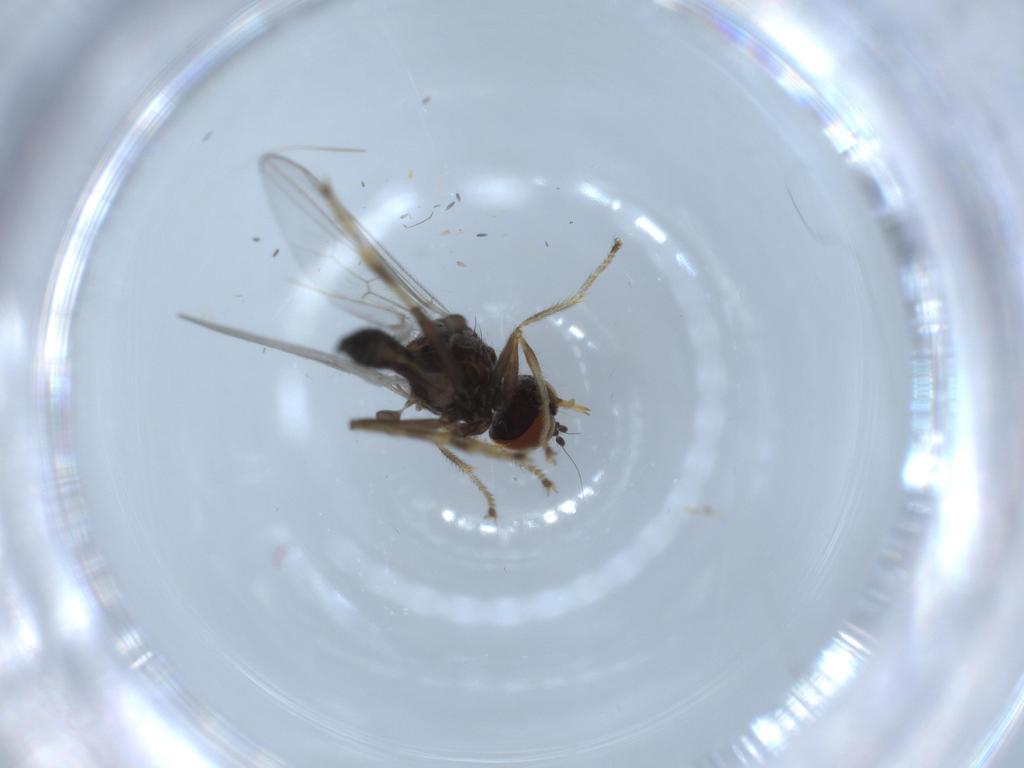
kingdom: Animalia
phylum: Arthropoda
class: Insecta
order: Diptera
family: Hybotidae
